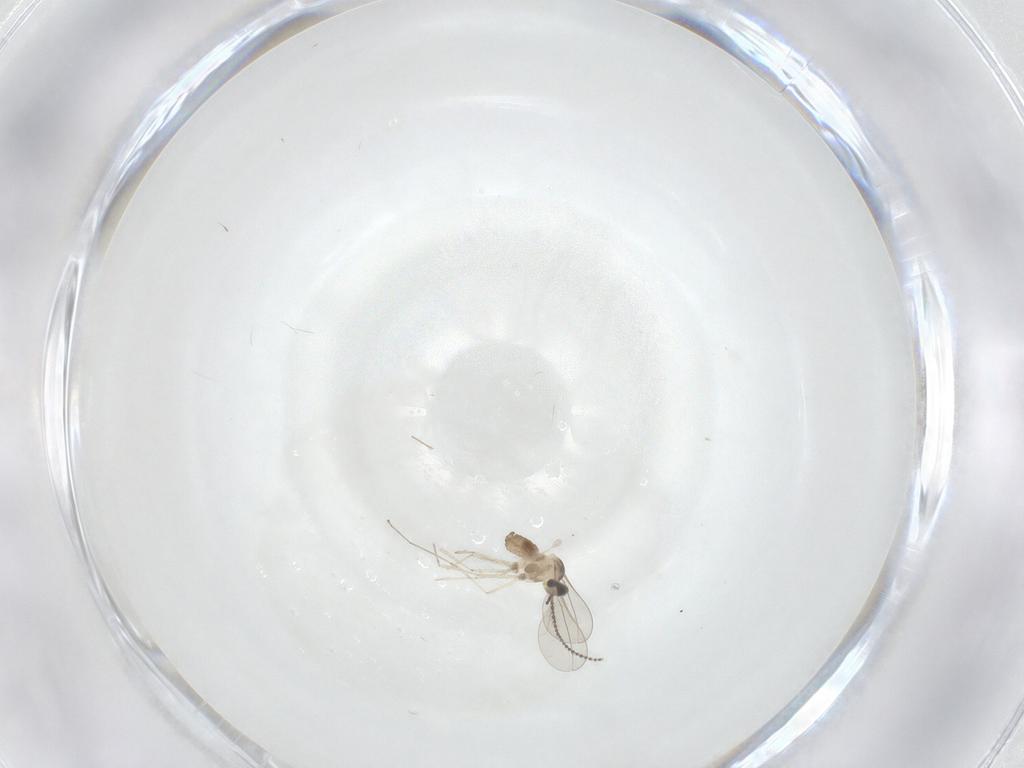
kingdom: Animalia
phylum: Arthropoda
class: Insecta
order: Diptera
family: Cecidomyiidae
